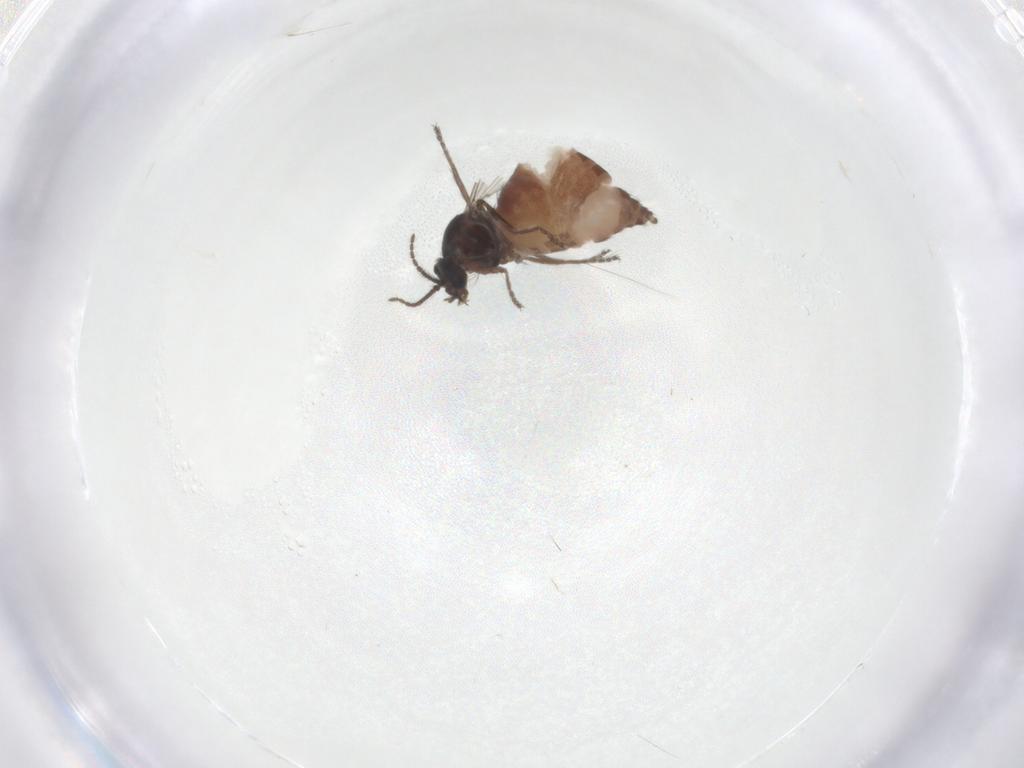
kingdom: Animalia
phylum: Arthropoda
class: Insecta
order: Diptera
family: Ceratopogonidae
